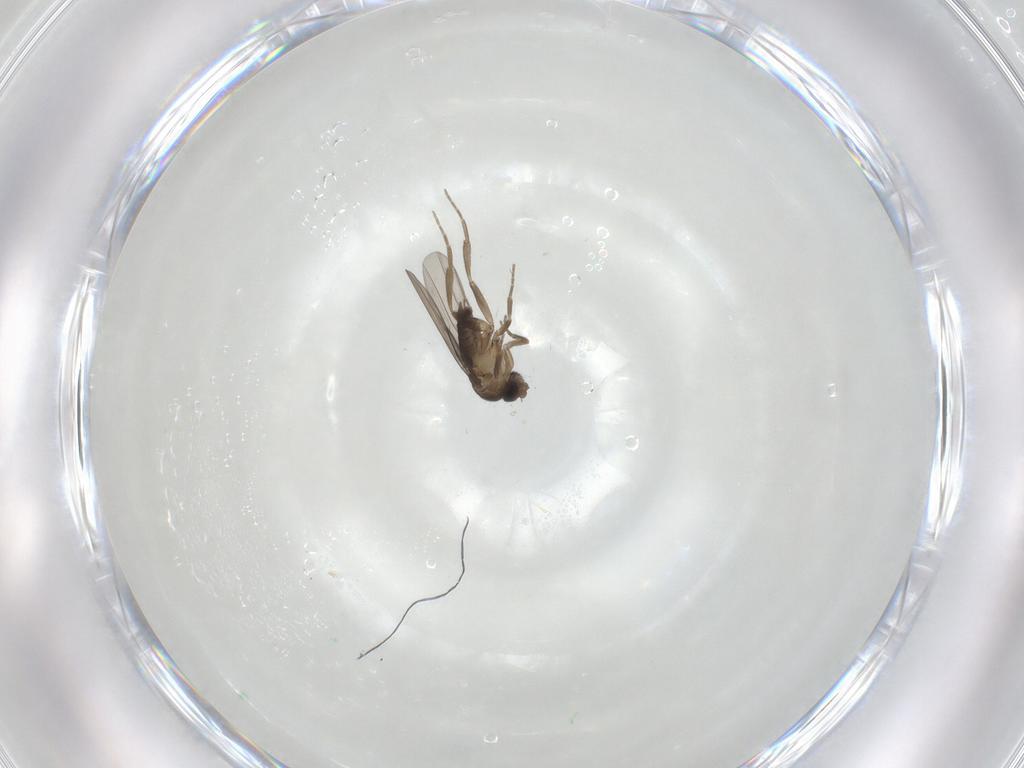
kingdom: Animalia
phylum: Arthropoda
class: Insecta
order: Diptera
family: Phoridae
